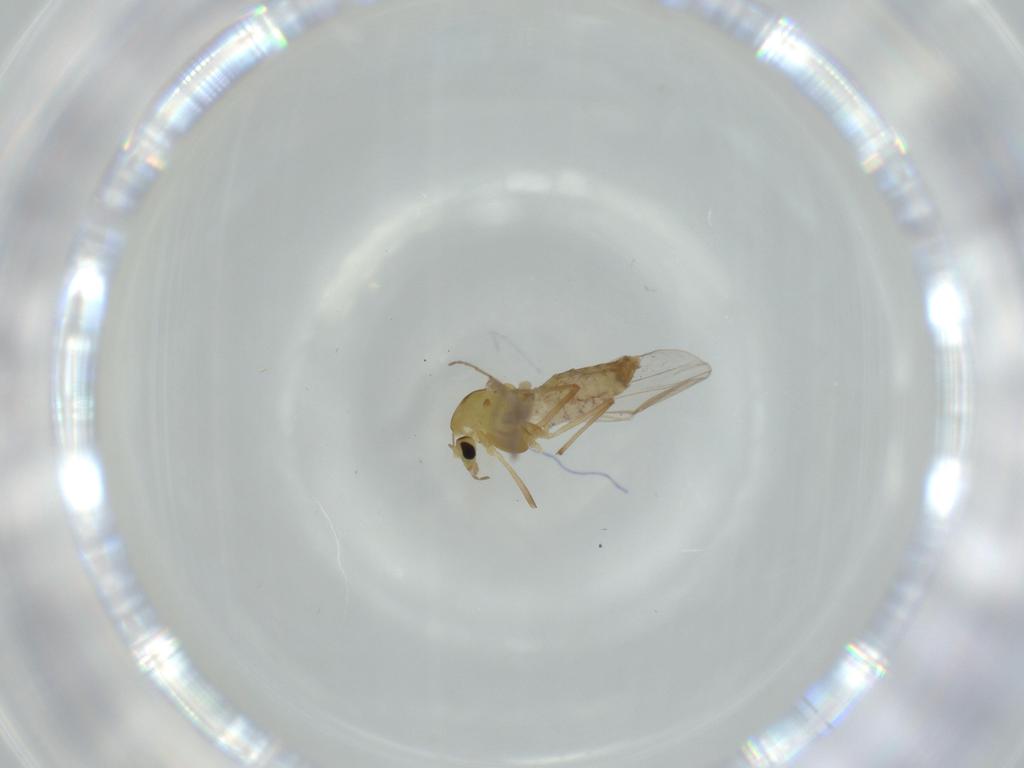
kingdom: Animalia
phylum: Arthropoda
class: Insecta
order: Diptera
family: Chironomidae
